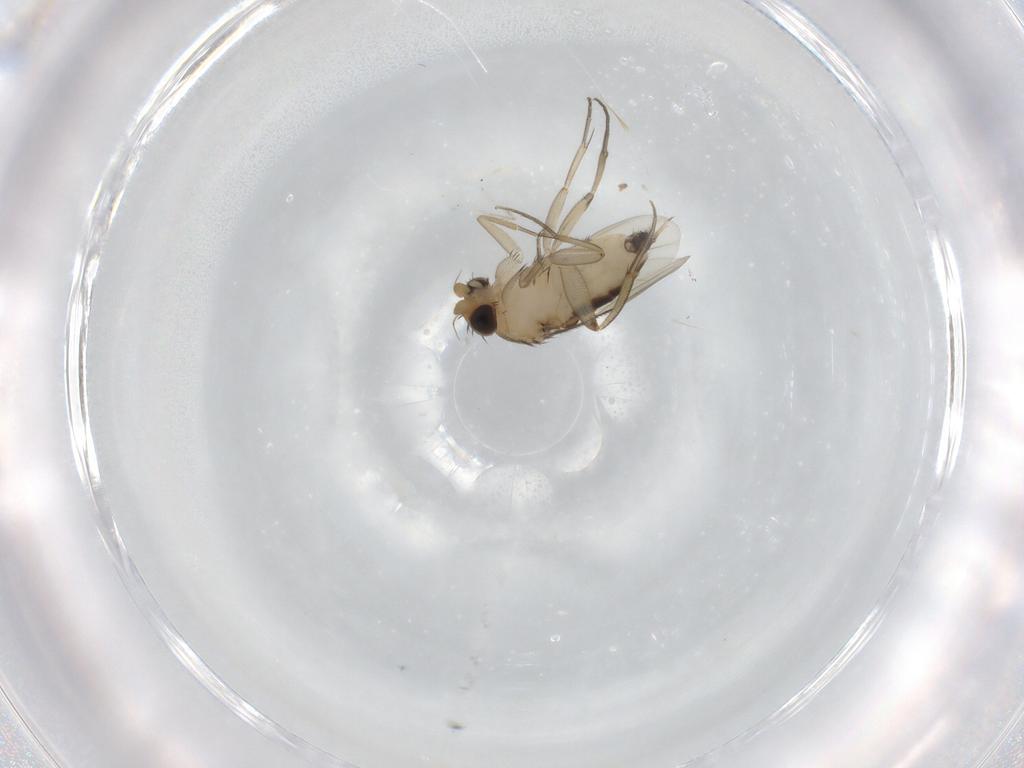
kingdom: Animalia
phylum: Arthropoda
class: Insecta
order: Diptera
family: Phoridae
